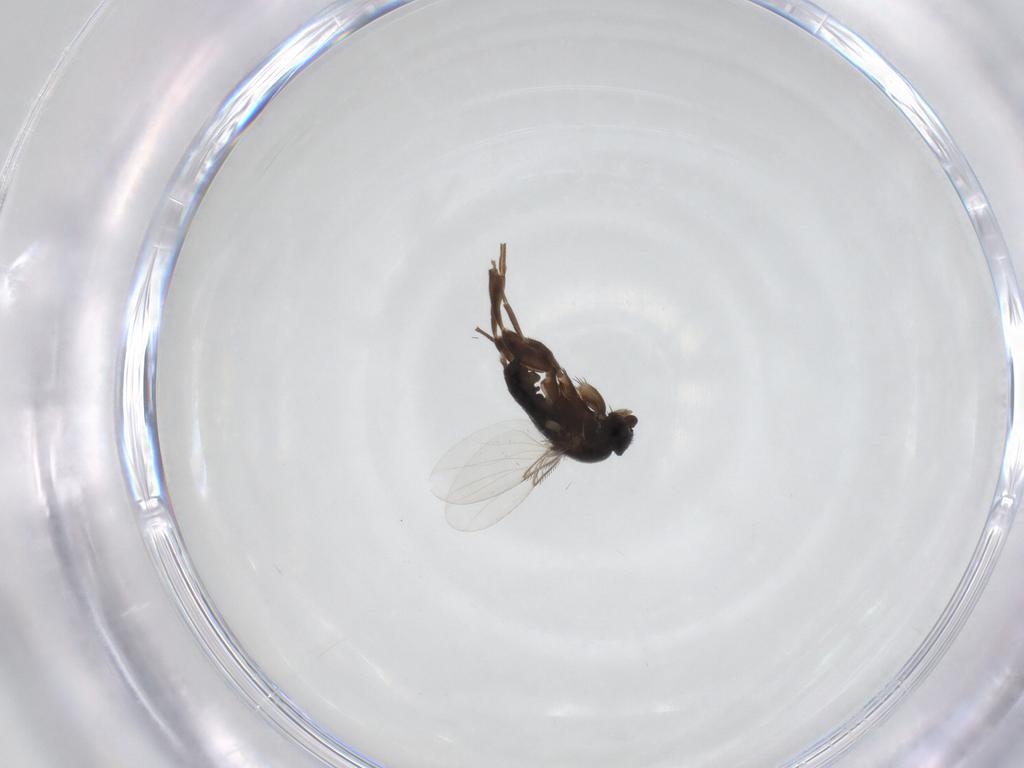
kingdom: Animalia
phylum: Arthropoda
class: Insecta
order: Diptera
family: Phoridae
